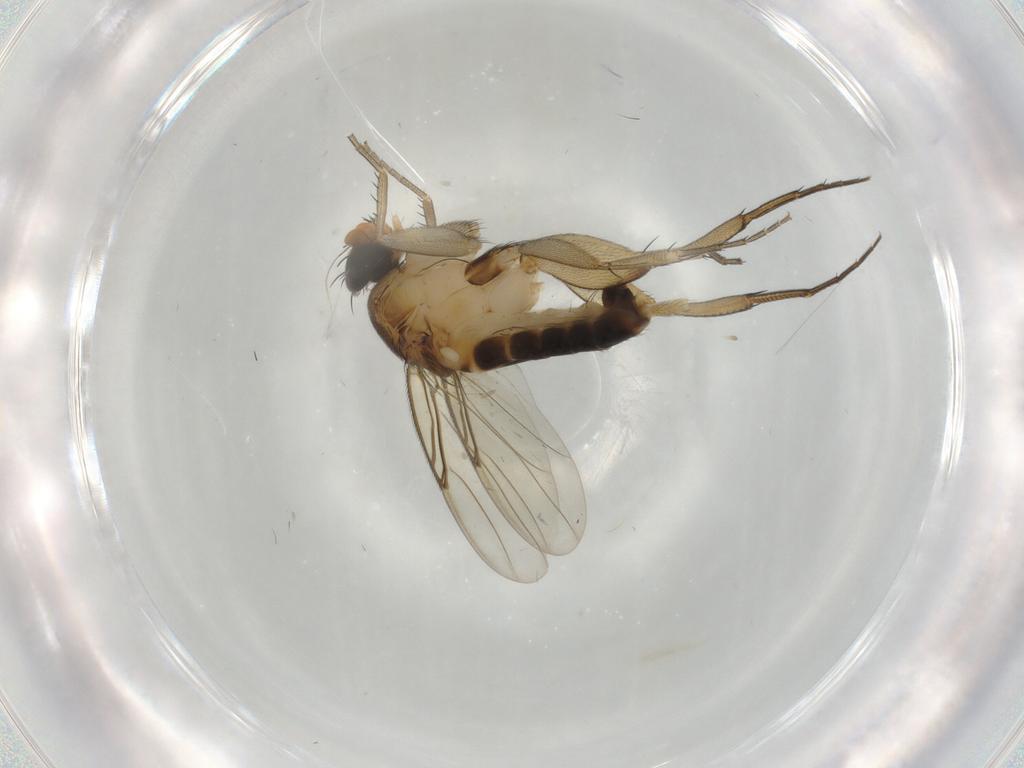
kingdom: Animalia
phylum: Arthropoda
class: Insecta
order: Diptera
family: Phoridae
